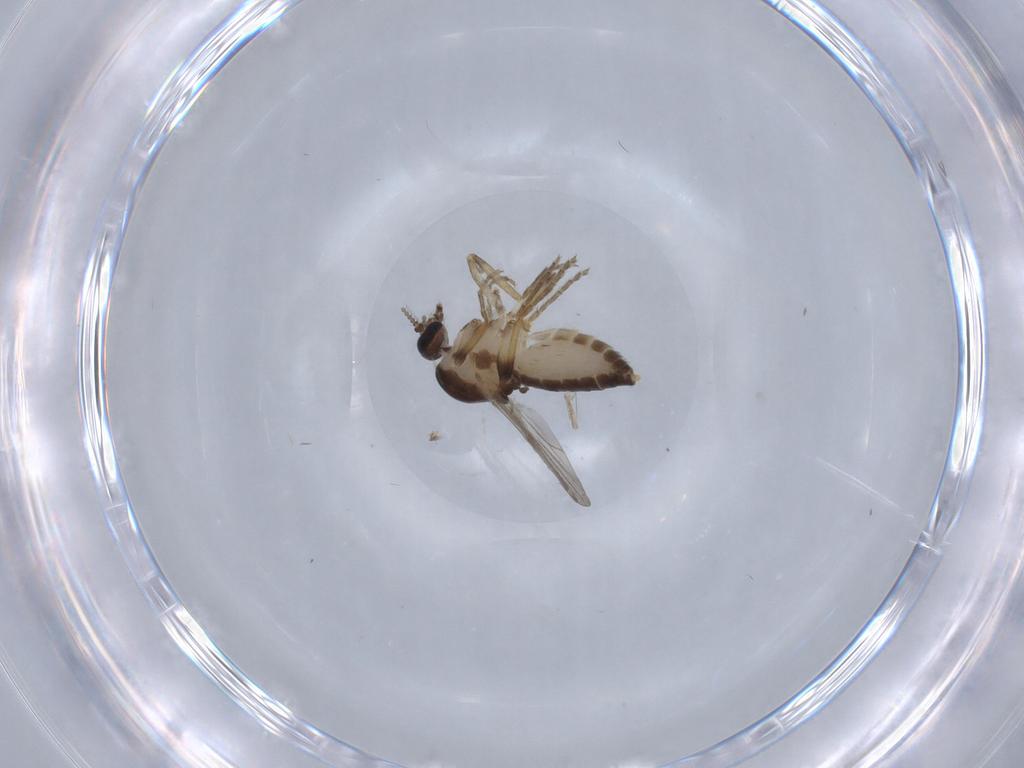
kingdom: Animalia
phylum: Arthropoda
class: Insecta
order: Diptera
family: Ceratopogonidae
